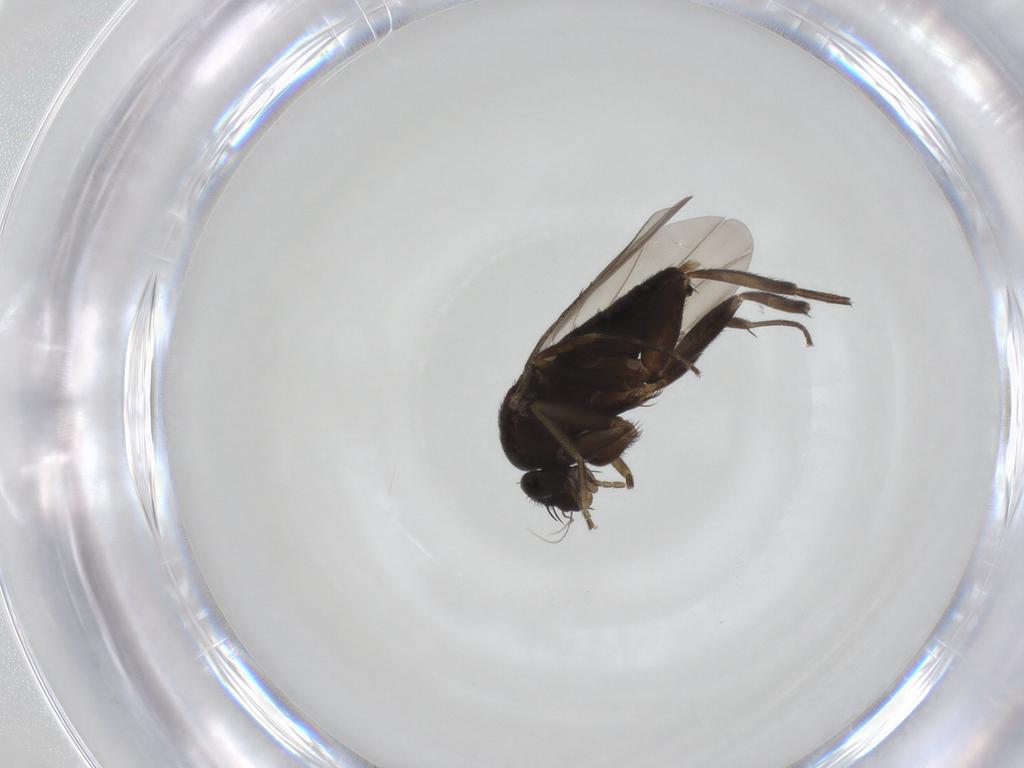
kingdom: Animalia
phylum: Arthropoda
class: Insecta
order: Diptera
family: Phoridae
